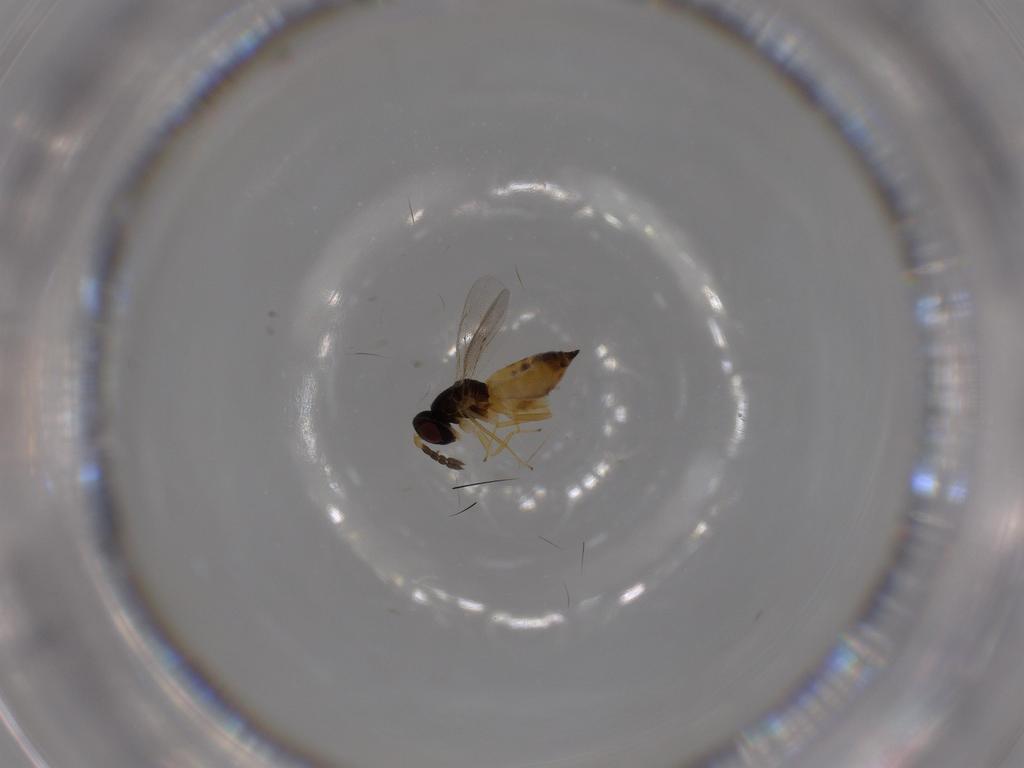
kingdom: Animalia
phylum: Arthropoda
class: Insecta
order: Hymenoptera
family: Eulophidae
